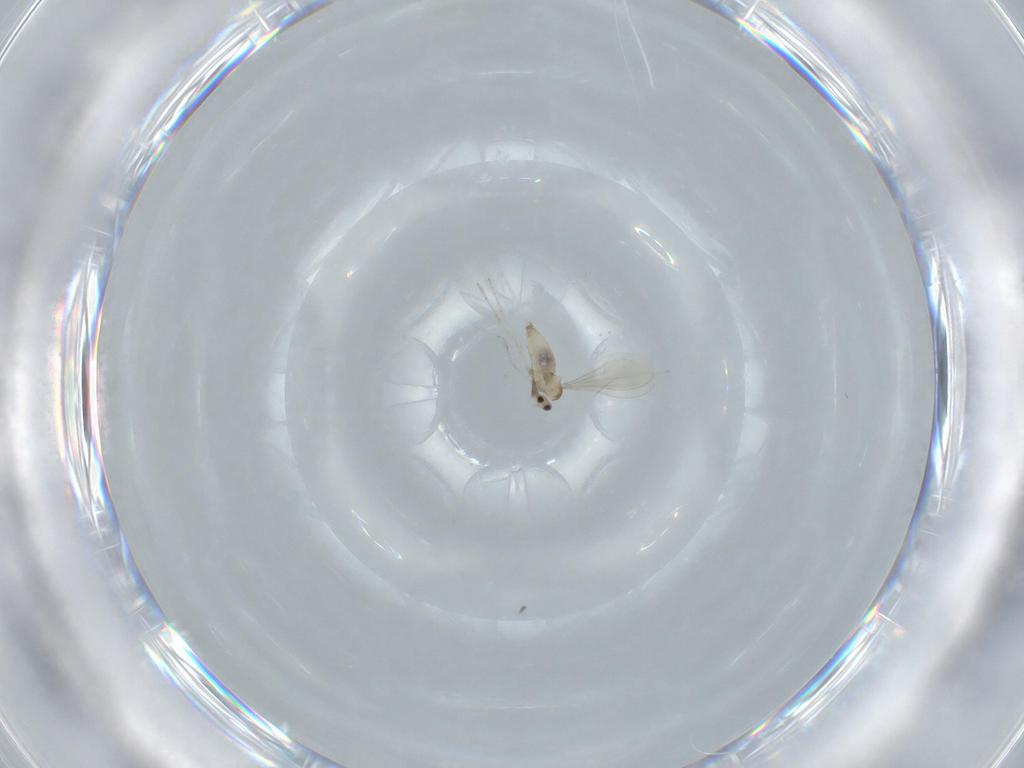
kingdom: Animalia
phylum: Arthropoda
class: Insecta
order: Diptera
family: Cecidomyiidae
